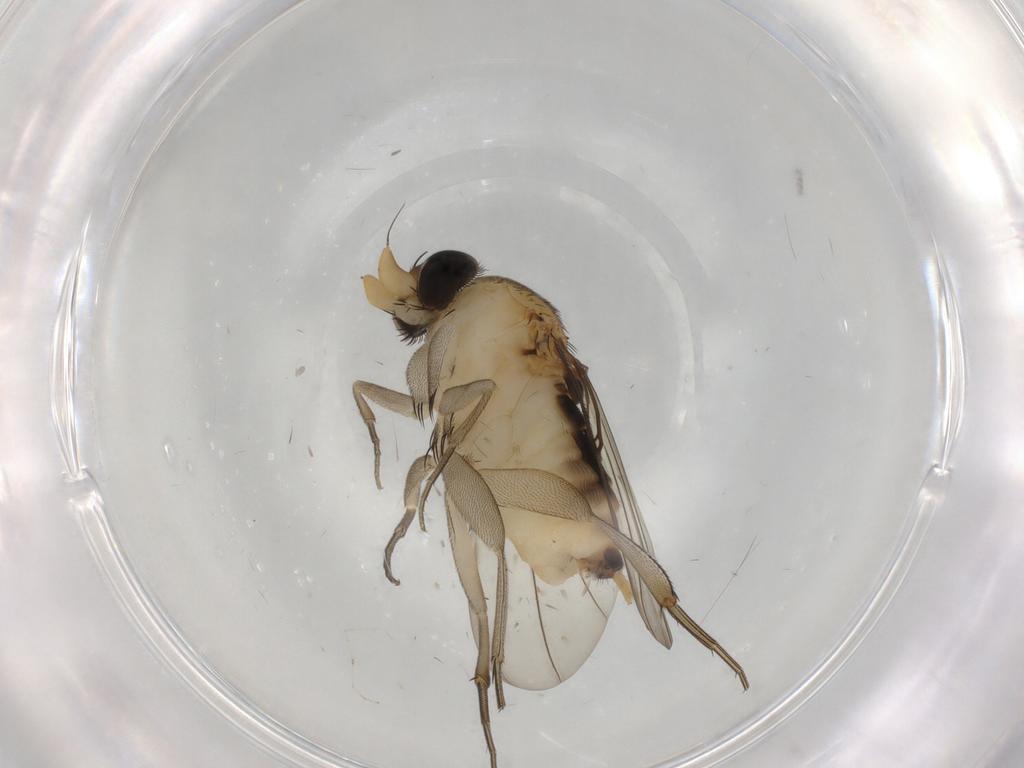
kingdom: Animalia
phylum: Arthropoda
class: Insecta
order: Diptera
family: Phoridae
